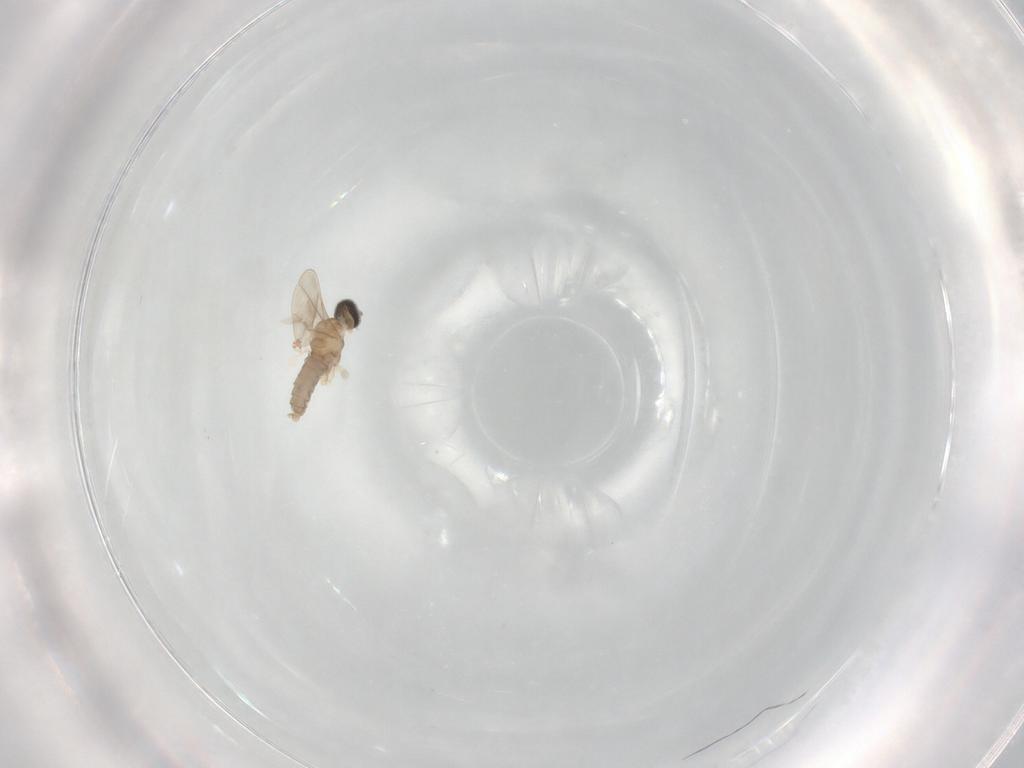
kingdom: Animalia
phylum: Arthropoda
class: Insecta
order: Diptera
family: Cecidomyiidae
